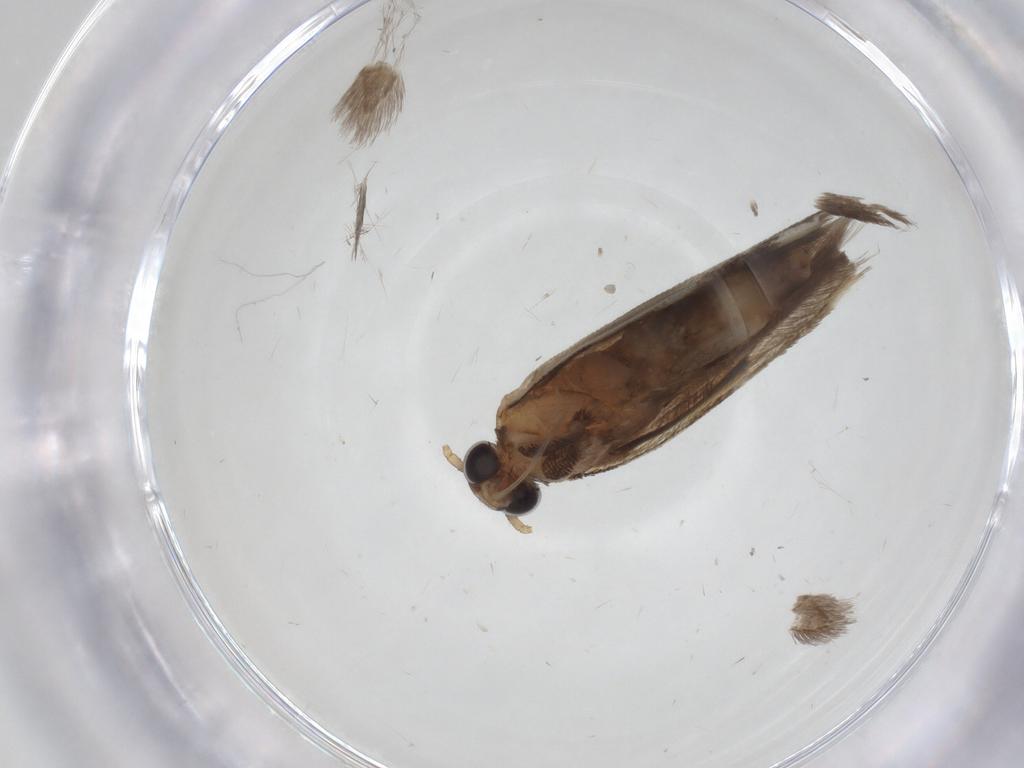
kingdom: Animalia
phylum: Arthropoda
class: Insecta
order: Lepidoptera
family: Gelechiidae
